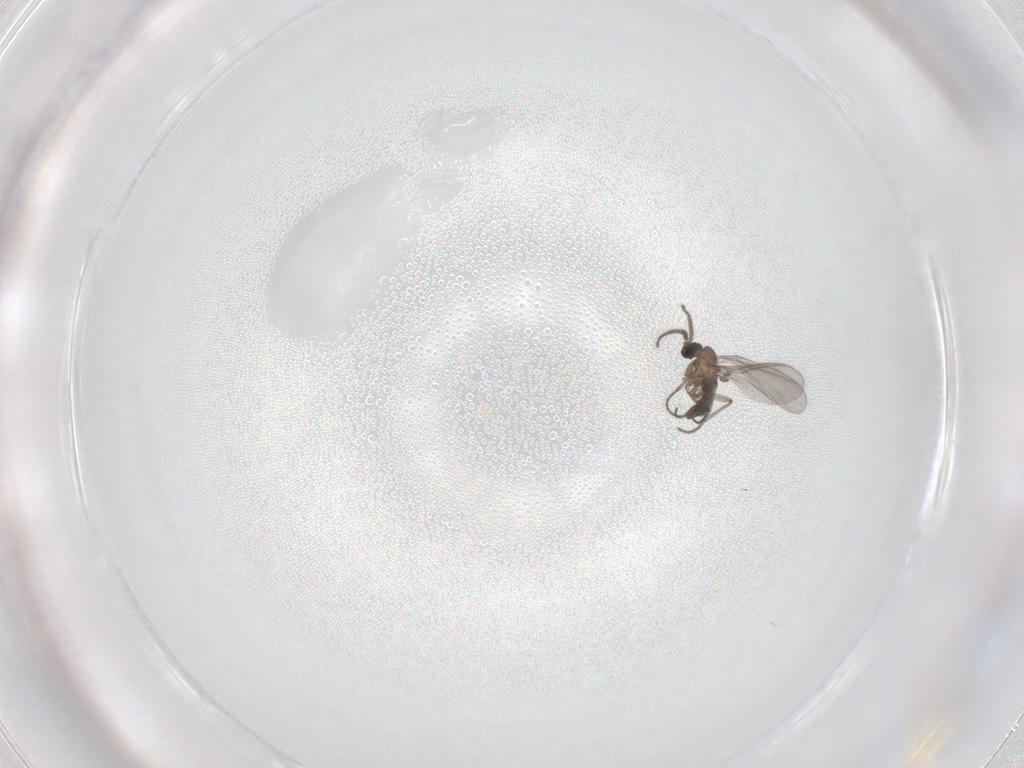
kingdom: Animalia
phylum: Arthropoda
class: Insecta
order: Diptera
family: Sciaridae
